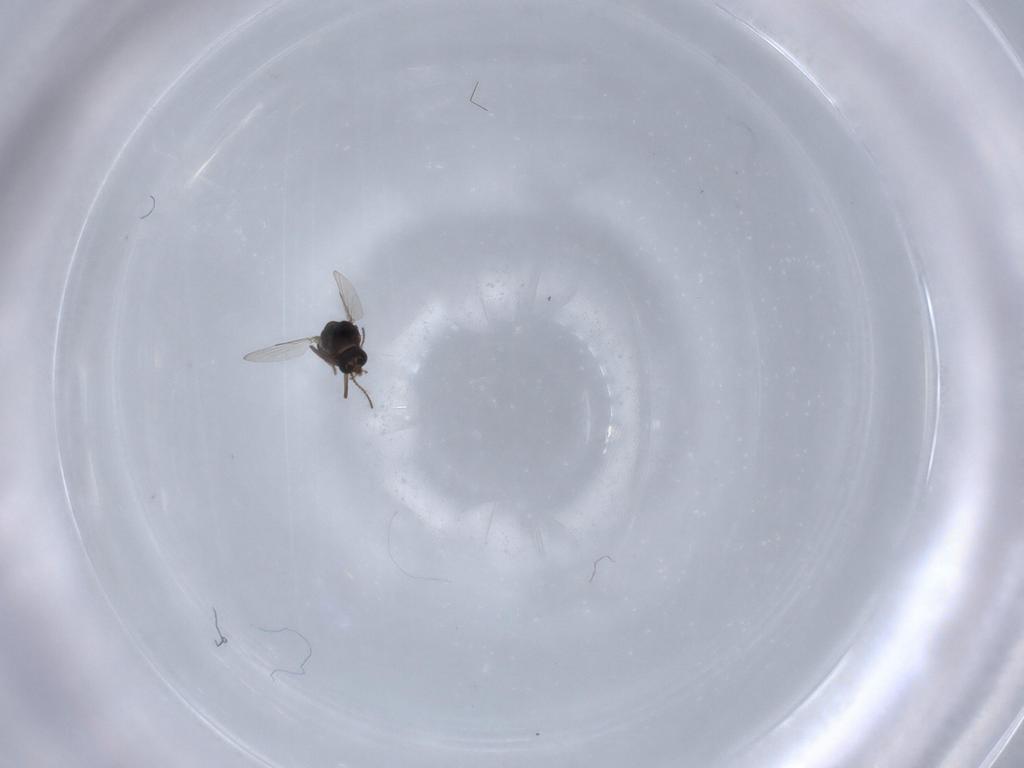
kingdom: Animalia
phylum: Arthropoda
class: Insecta
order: Diptera
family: Ceratopogonidae
